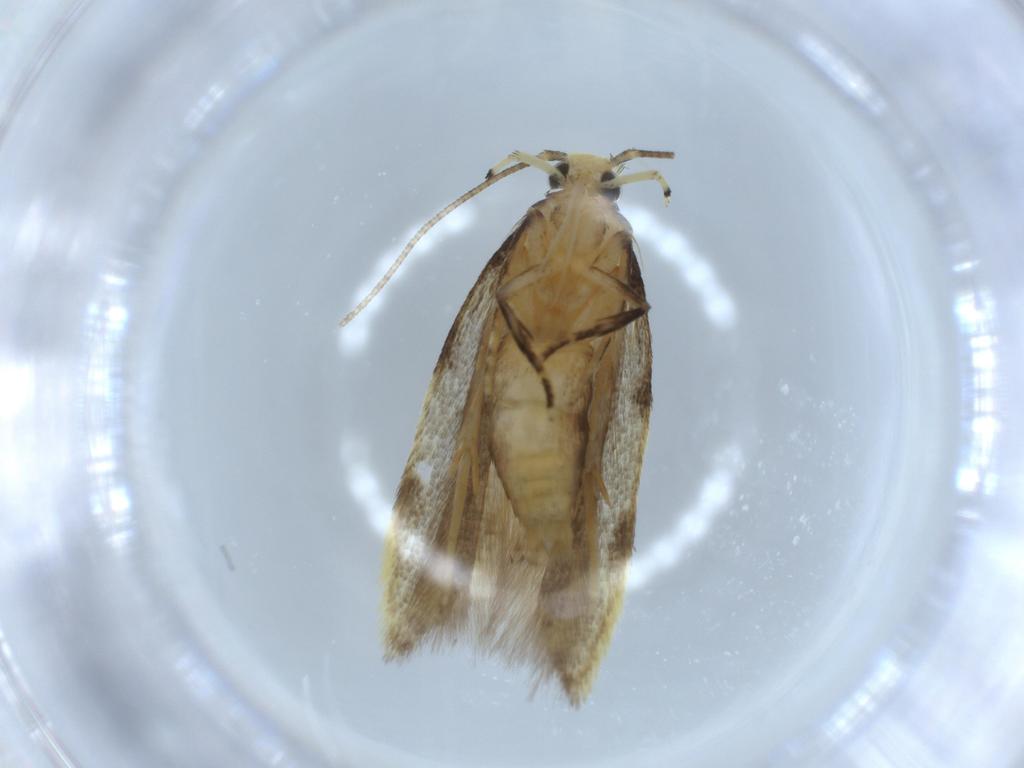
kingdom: Animalia
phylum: Arthropoda
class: Insecta
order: Lepidoptera
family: Autostichidae
